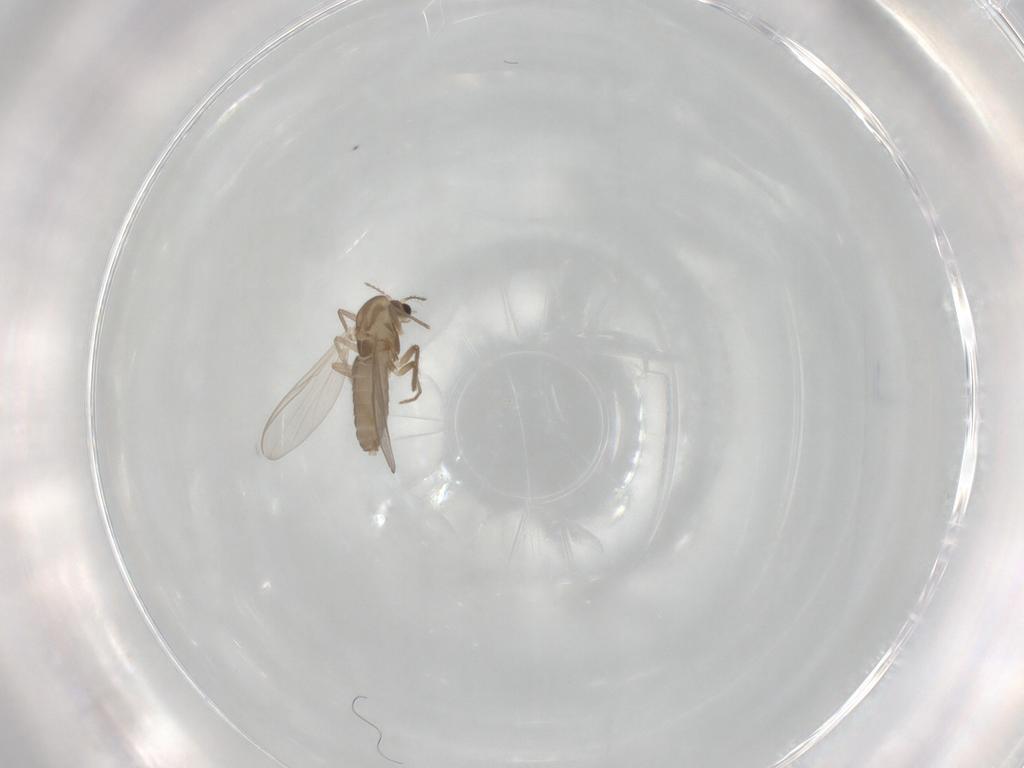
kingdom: Animalia
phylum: Arthropoda
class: Insecta
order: Diptera
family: Chironomidae
